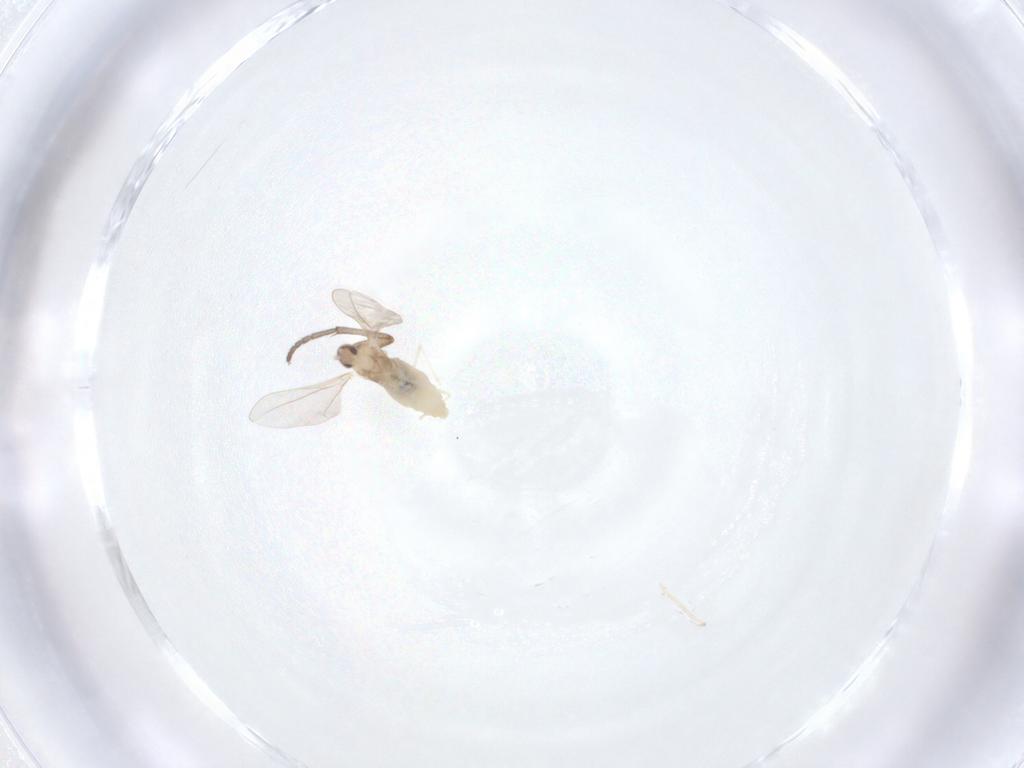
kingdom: Animalia
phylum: Arthropoda
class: Insecta
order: Diptera
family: Sciaridae
